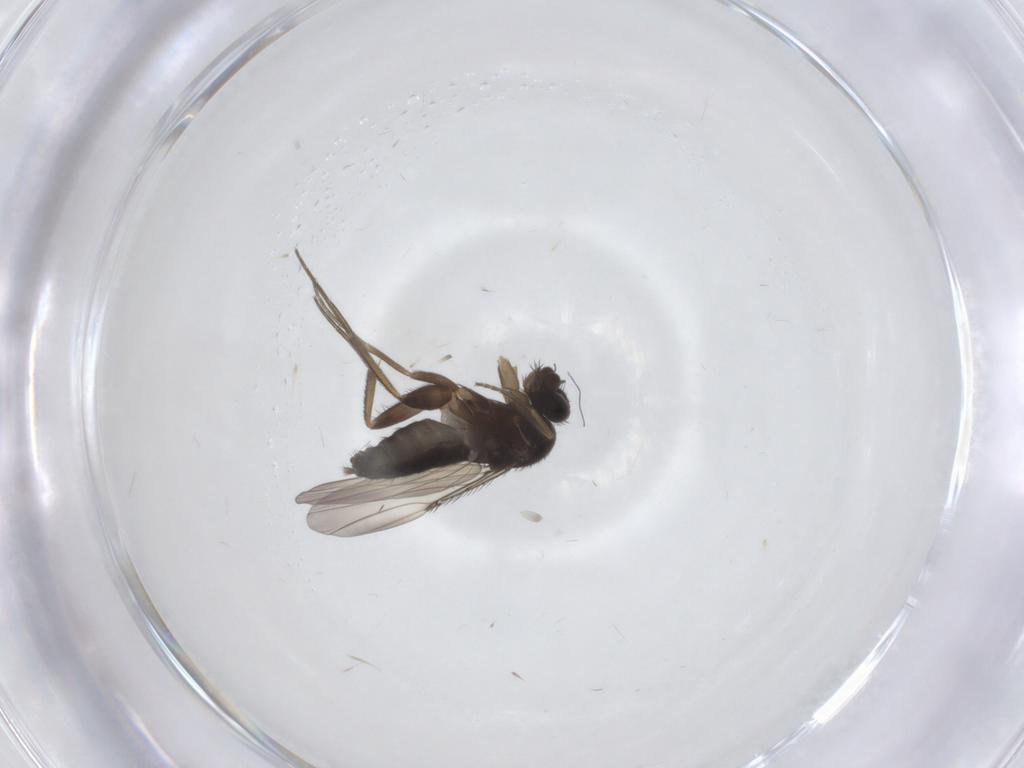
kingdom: Animalia
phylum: Arthropoda
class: Insecta
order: Diptera
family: Phoridae
